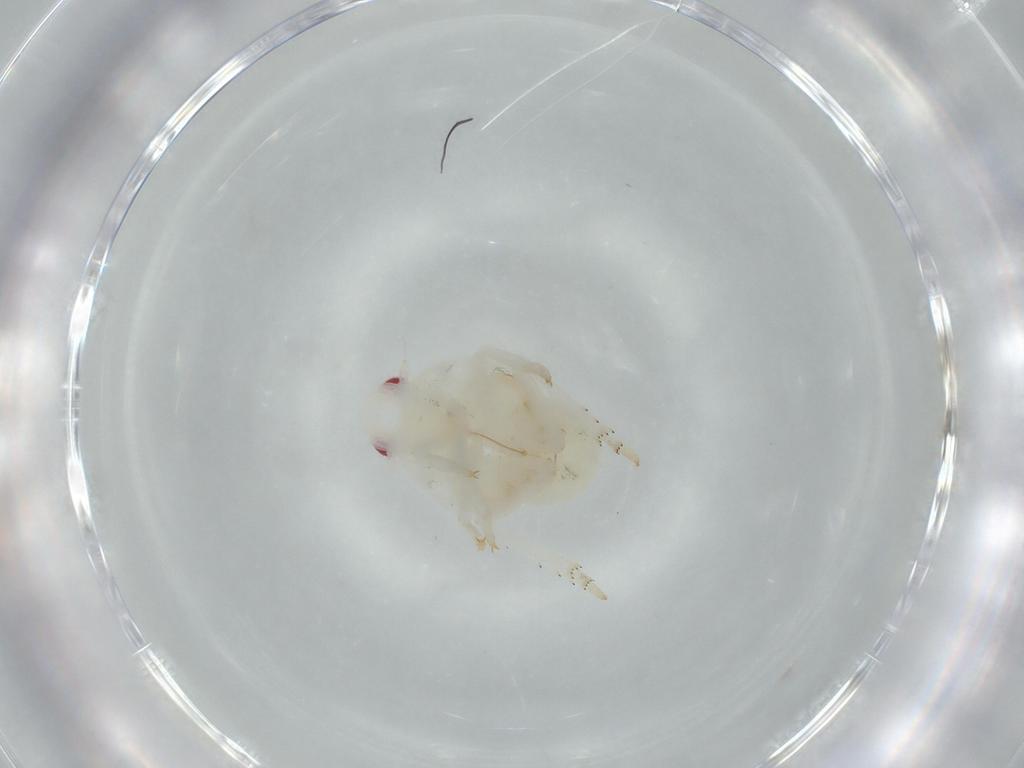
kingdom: Animalia
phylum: Arthropoda
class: Insecta
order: Hemiptera
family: Flatidae
